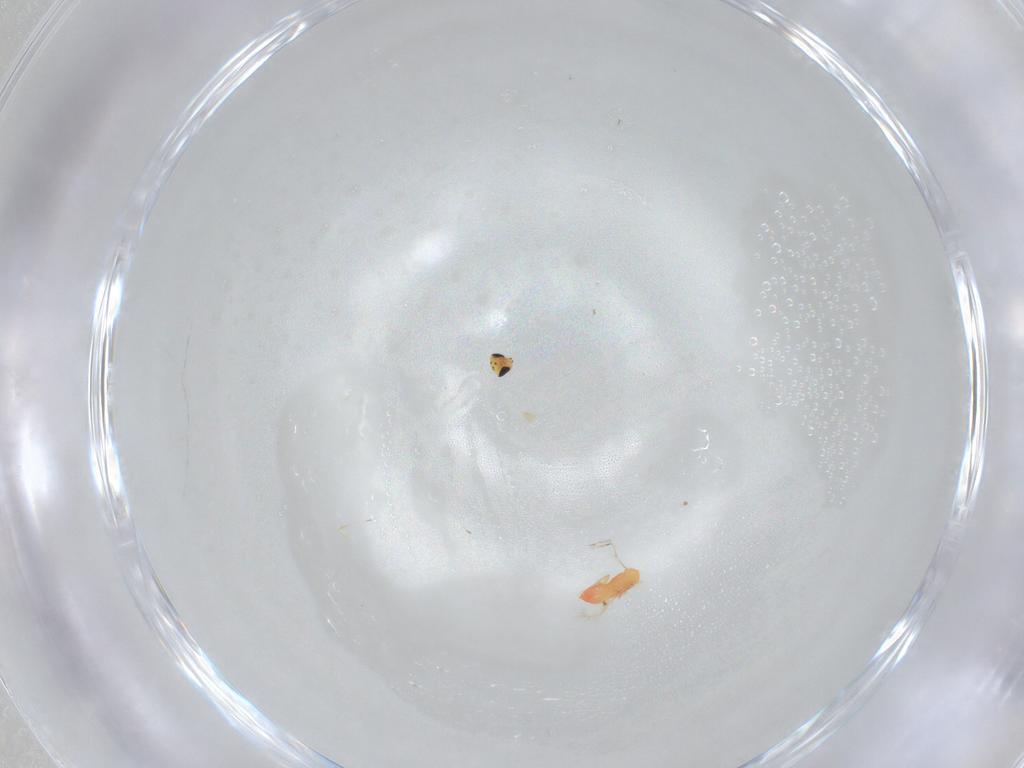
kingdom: Animalia
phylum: Arthropoda
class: Insecta
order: Hymenoptera
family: Trichogrammatidae
